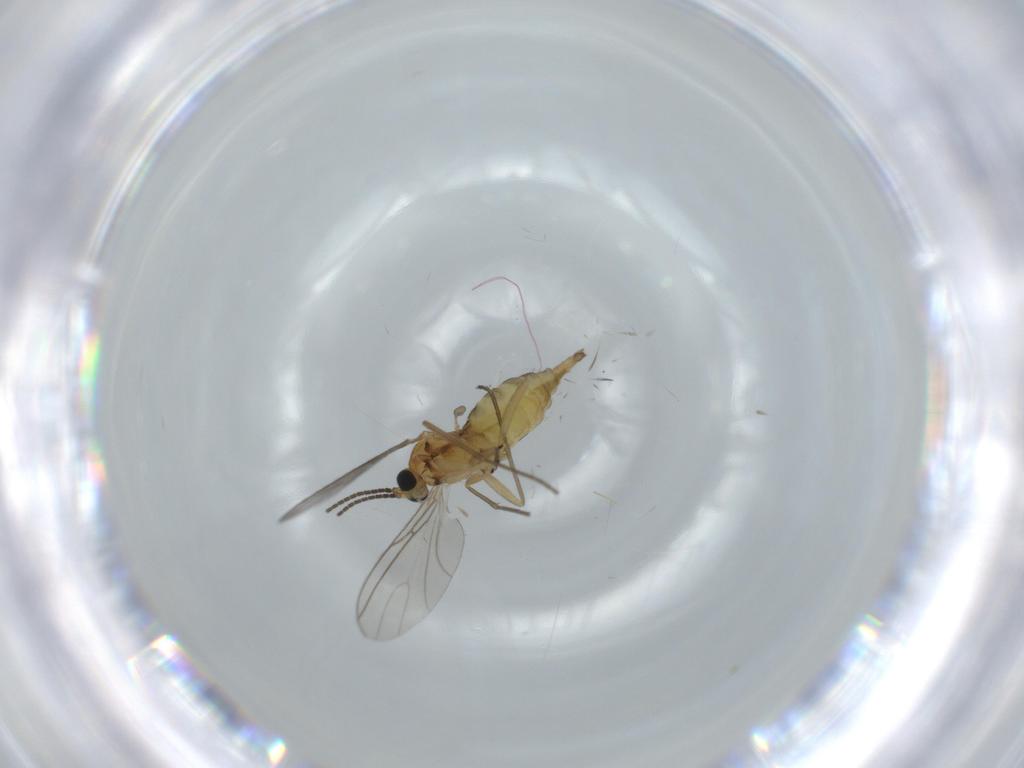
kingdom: Animalia
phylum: Arthropoda
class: Insecta
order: Diptera
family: Sciaridae
